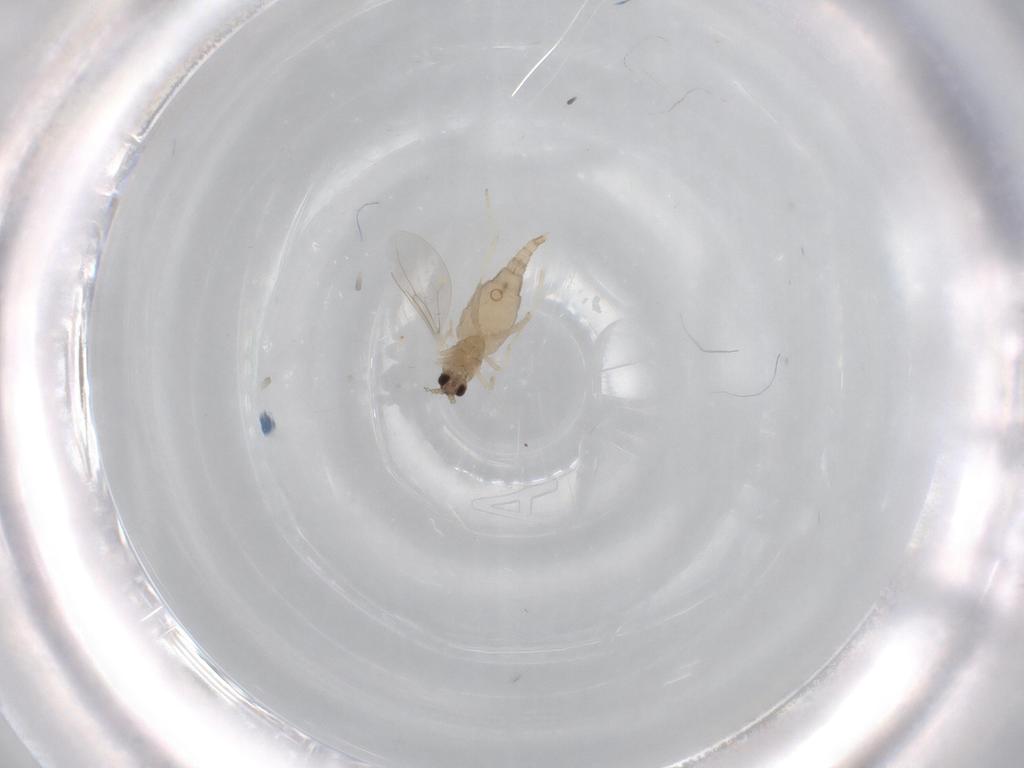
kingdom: Animalia
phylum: Arthropoda
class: Insecta
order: Diptera
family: Cecidomyiidae
